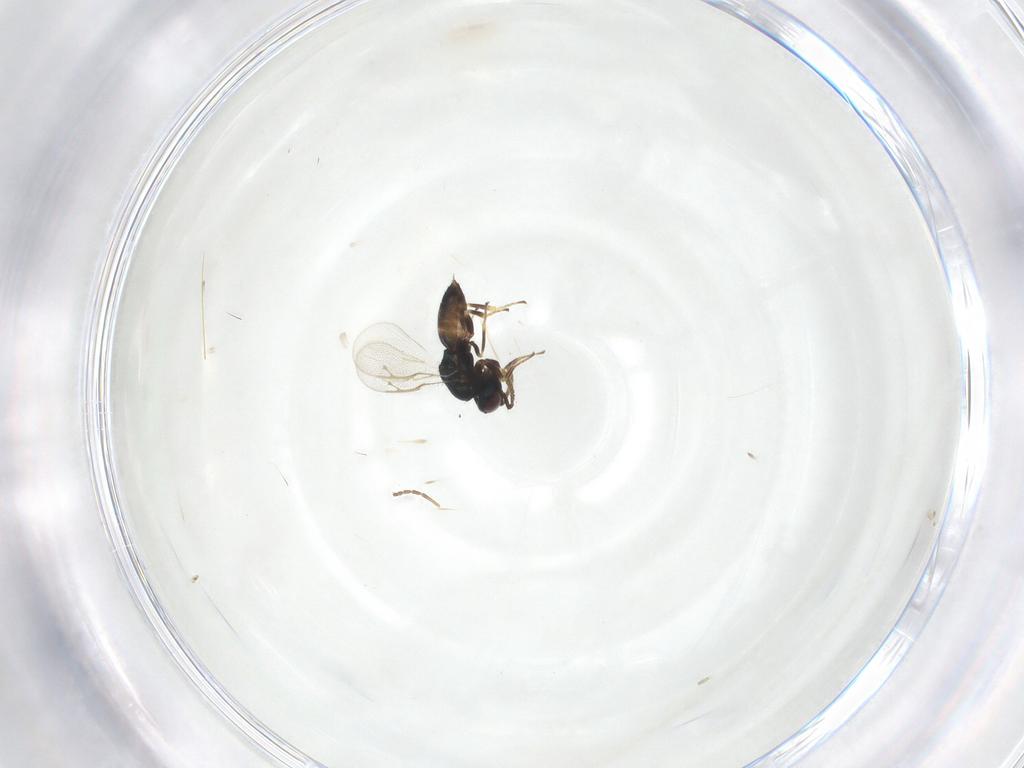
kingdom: Animalia
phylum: Arthropoda
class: Insecta
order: Hymenoptera
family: Pteromalidae
